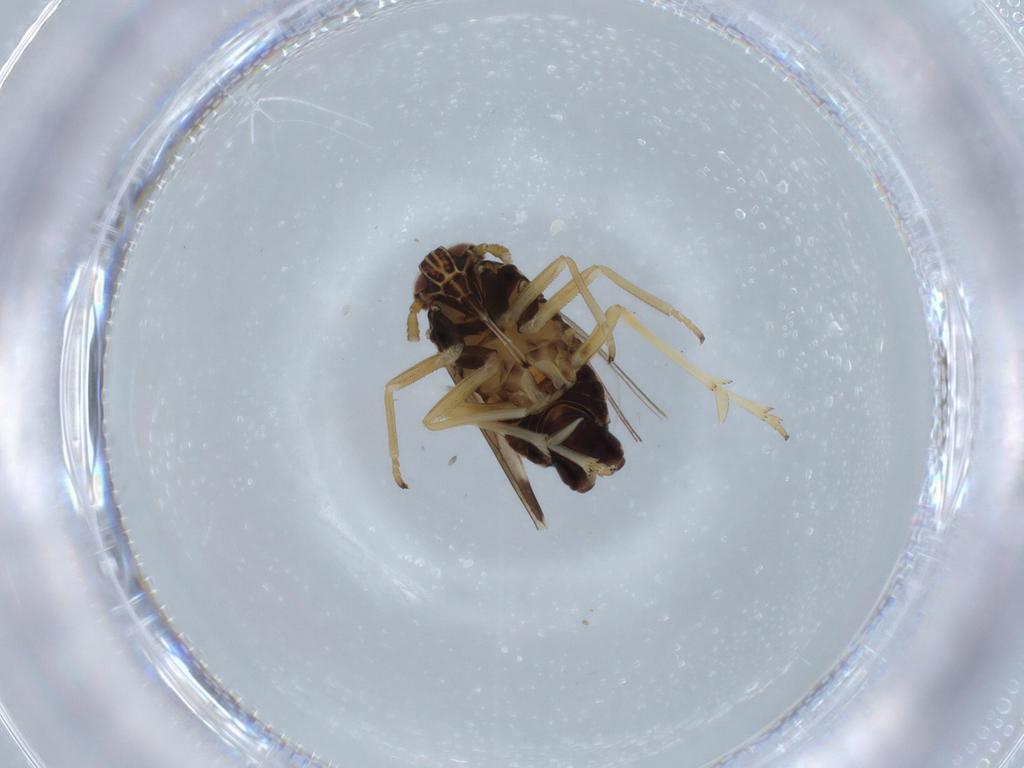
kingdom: Animalia
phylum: Arthropoda
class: Insecta
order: Hemiptera
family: Delphacidae
